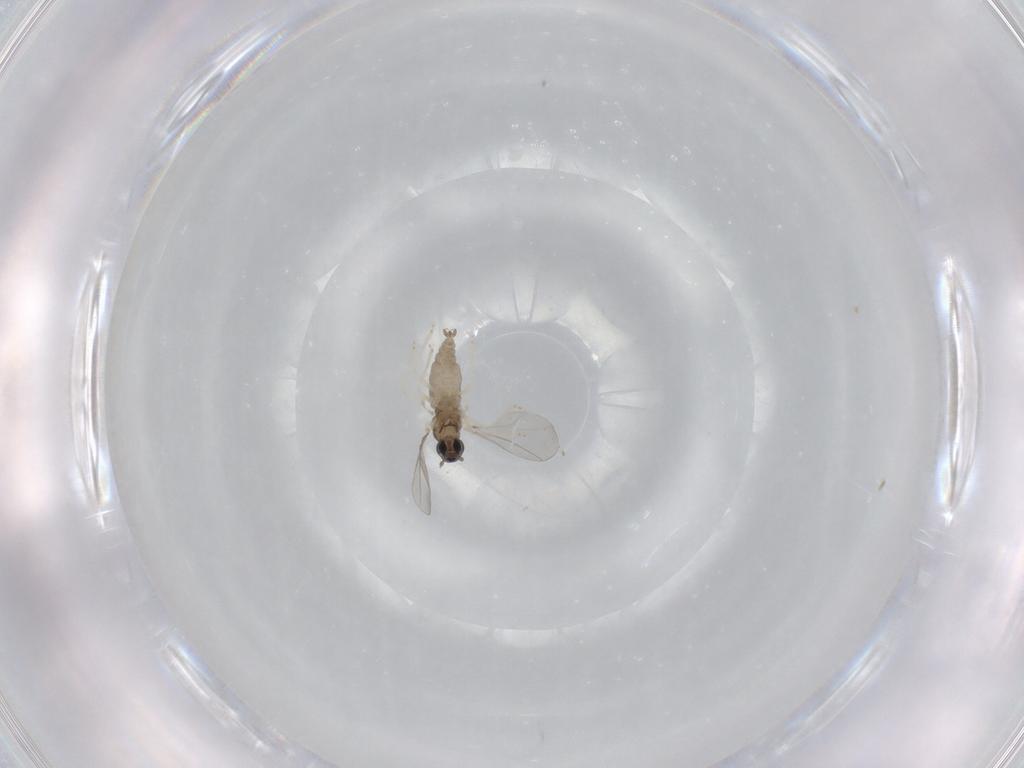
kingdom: Animalia
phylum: Arthropoda
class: Insecta
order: Diptera
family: Cecidomyiidae
